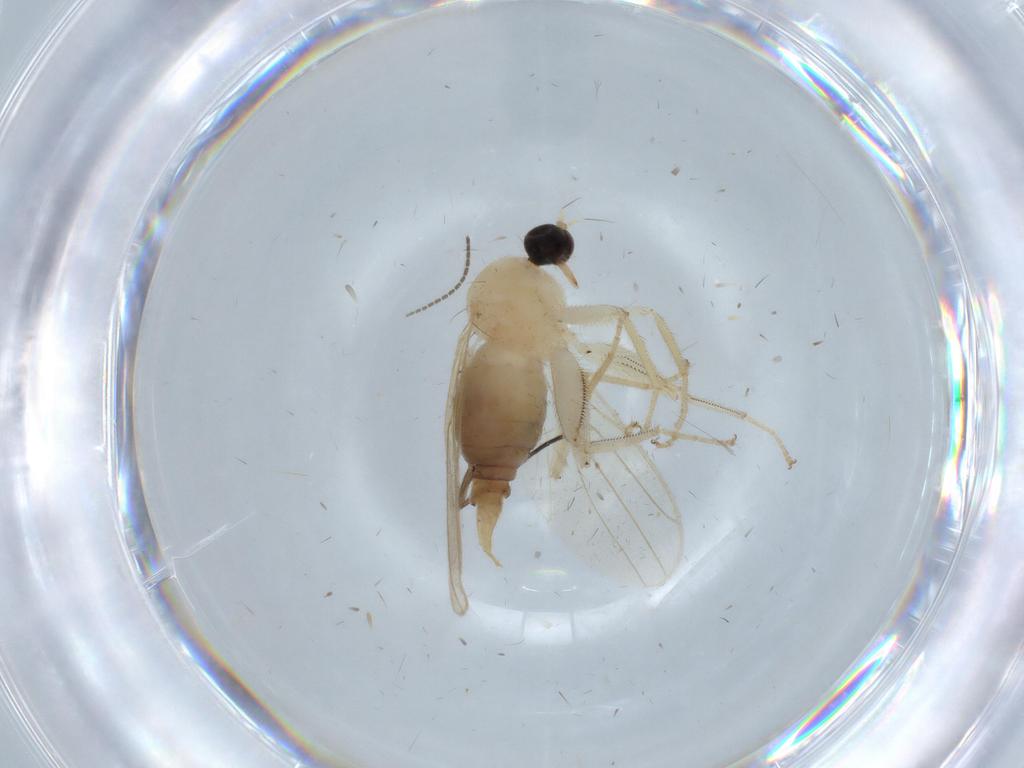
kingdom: Animalia
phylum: Arthropoda
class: Insecta
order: Diptera
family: Hybotidae
